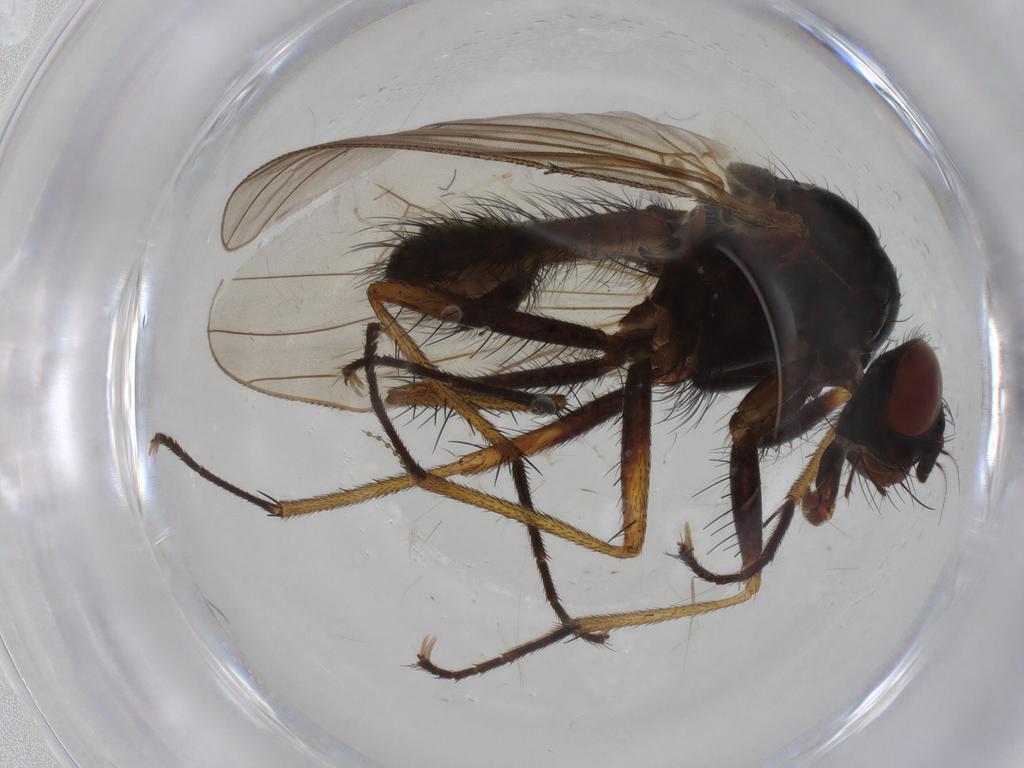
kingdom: Animalia
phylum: Arthropoda
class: Insecta
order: Diptera
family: Anthomyiidae
